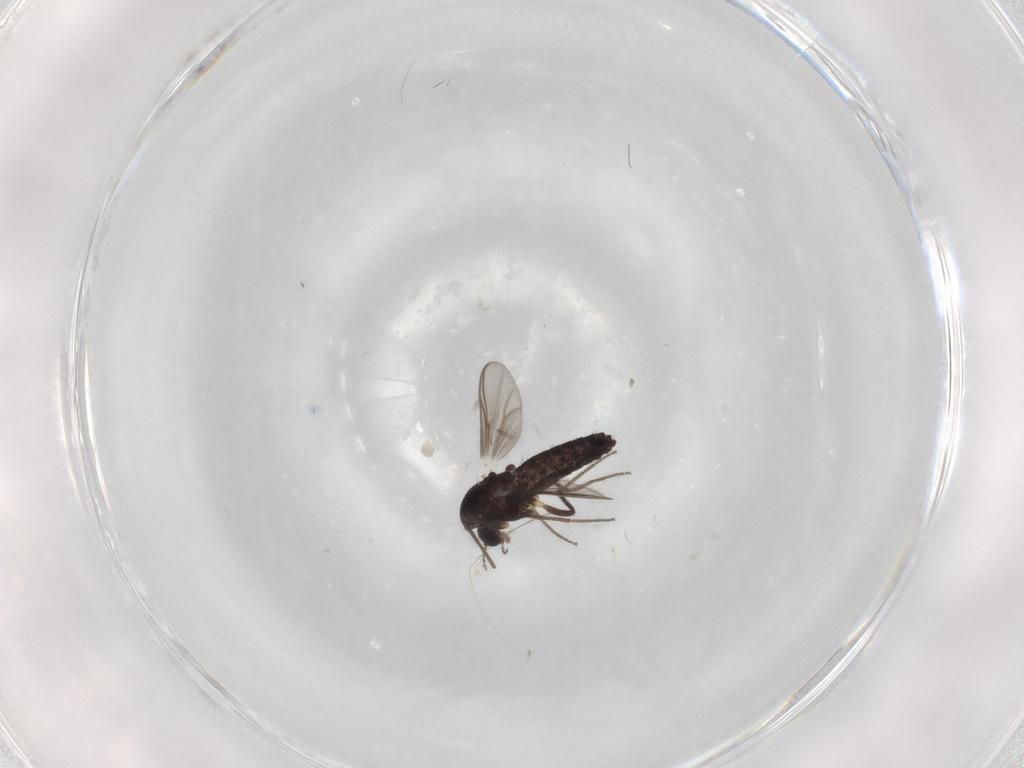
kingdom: Animalia
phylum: Arthropoda
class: Insecta
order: Diptera
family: Chironomidae
